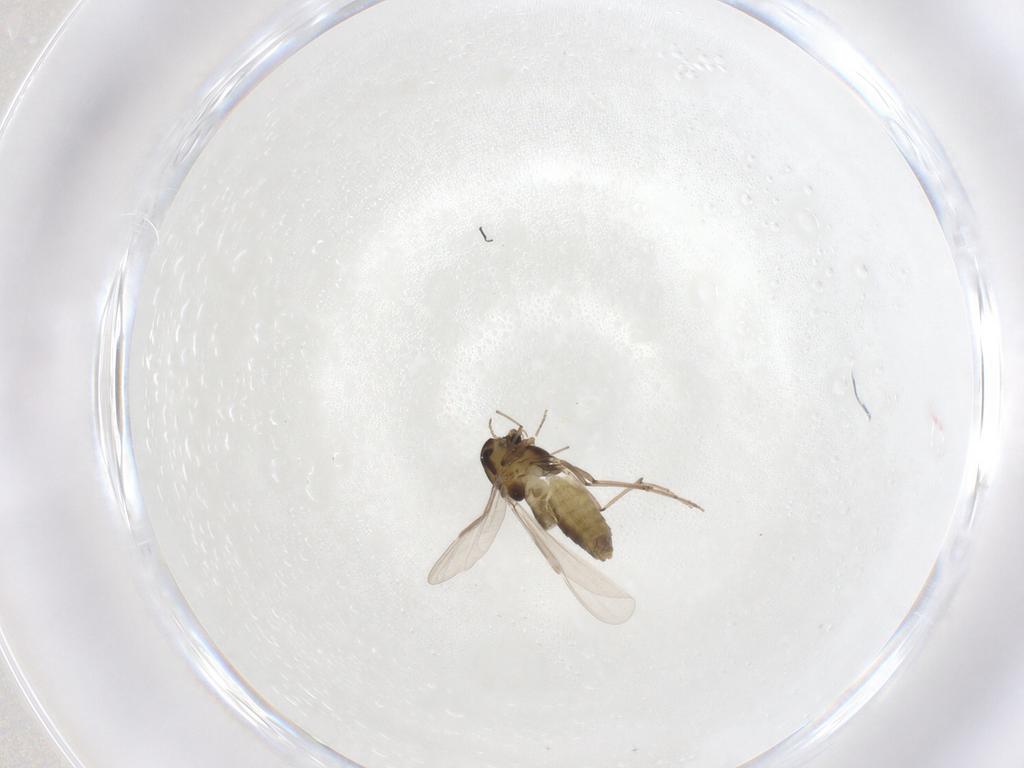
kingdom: Animalia
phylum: Arthropoda
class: Insecta
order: Diptera
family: Chironomidae
